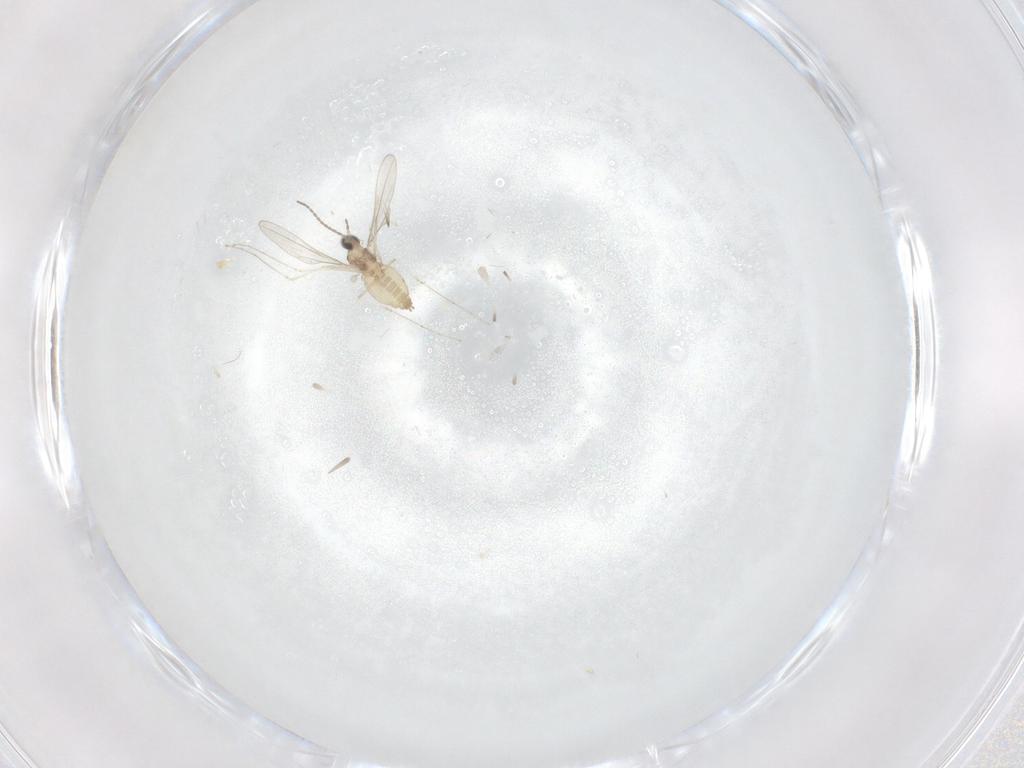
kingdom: Animalia
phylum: Arthropoda
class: Insecta
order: Diptera
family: Cecidomyiidae
